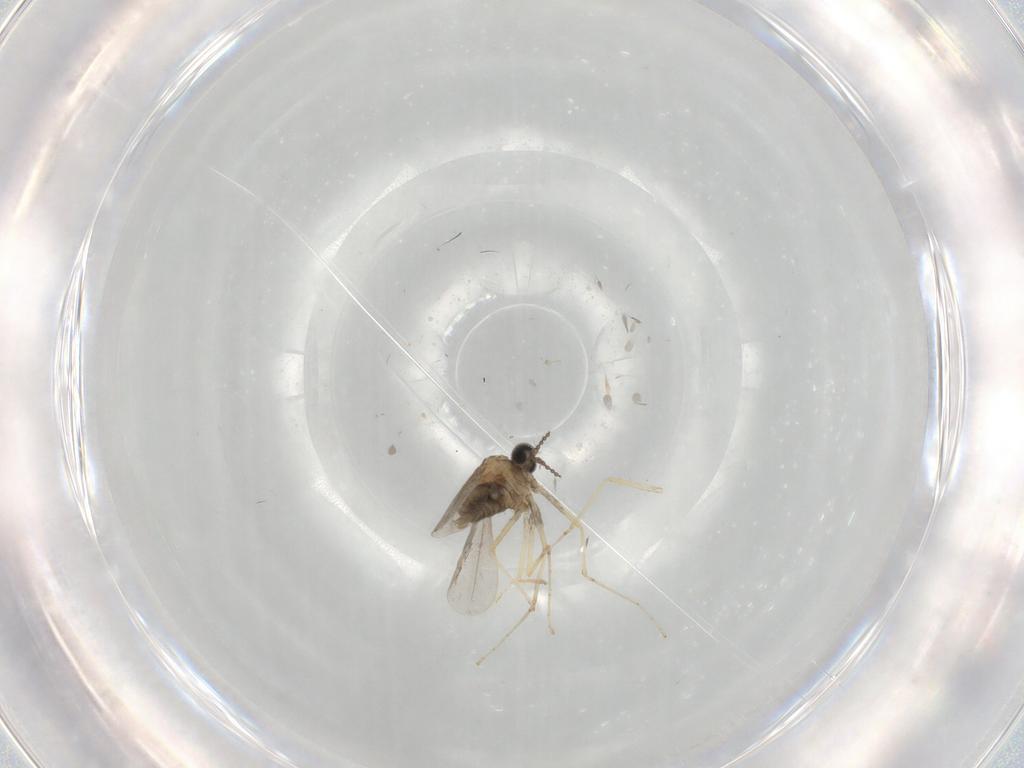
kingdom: Animalia
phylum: Arthropoda
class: Insecta
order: Diptera
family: Cecidomyiidae
